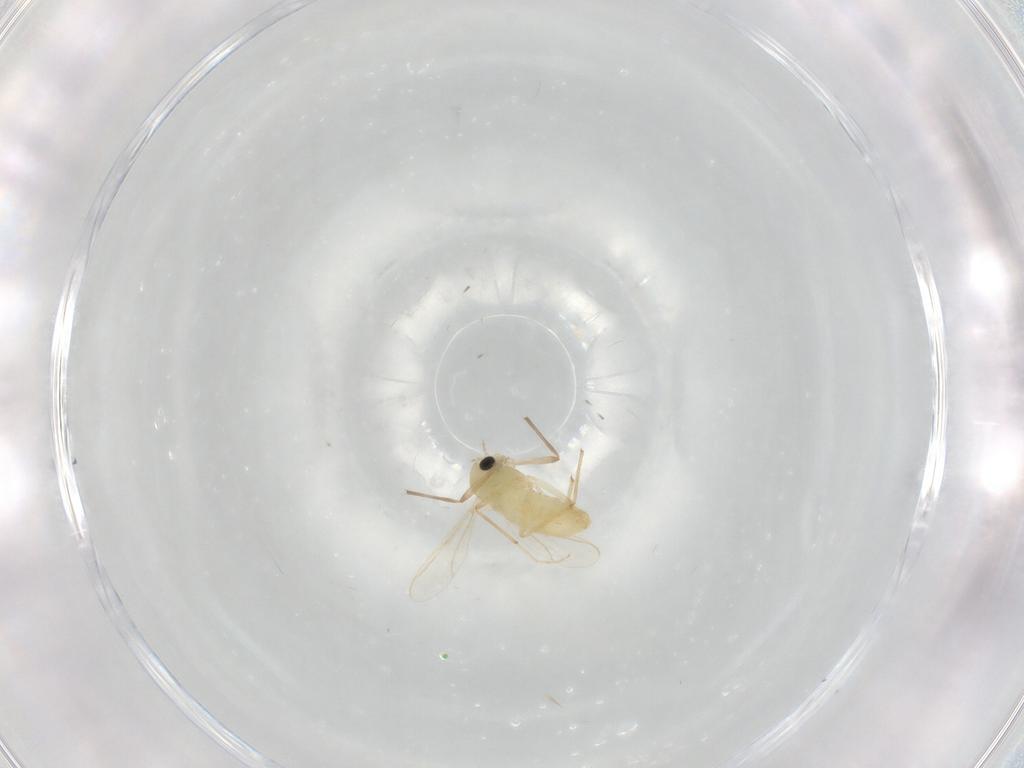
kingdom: Animalia
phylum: Arthropoda
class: Insecta
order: Diptera
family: Chironomidae
